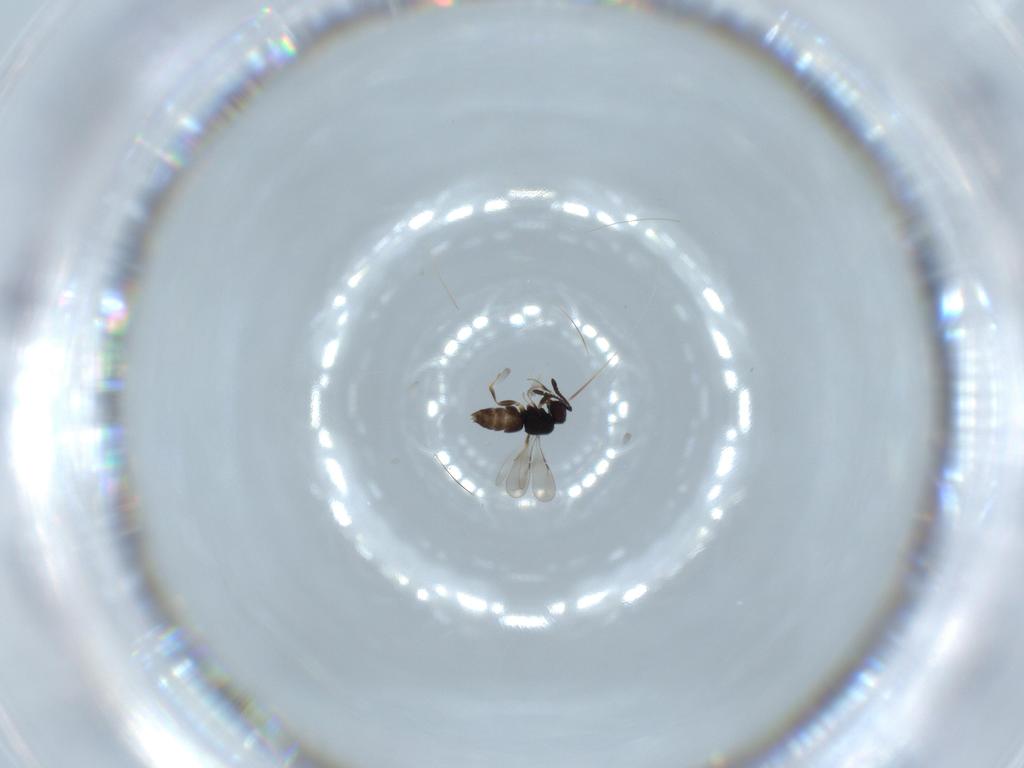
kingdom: Animalia
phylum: Arthropoda
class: Insecta
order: Hymenoptera
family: Ceraphronidae
